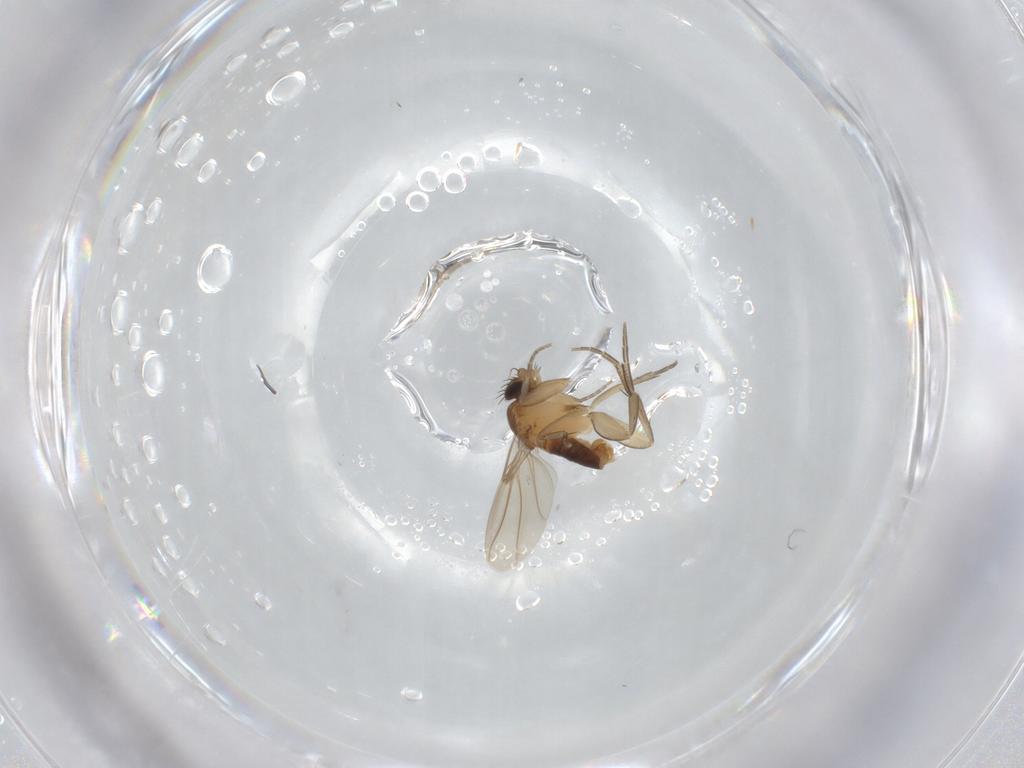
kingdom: Animalia
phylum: Arthropoda
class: Insecta
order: Diptera
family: Phoridae
